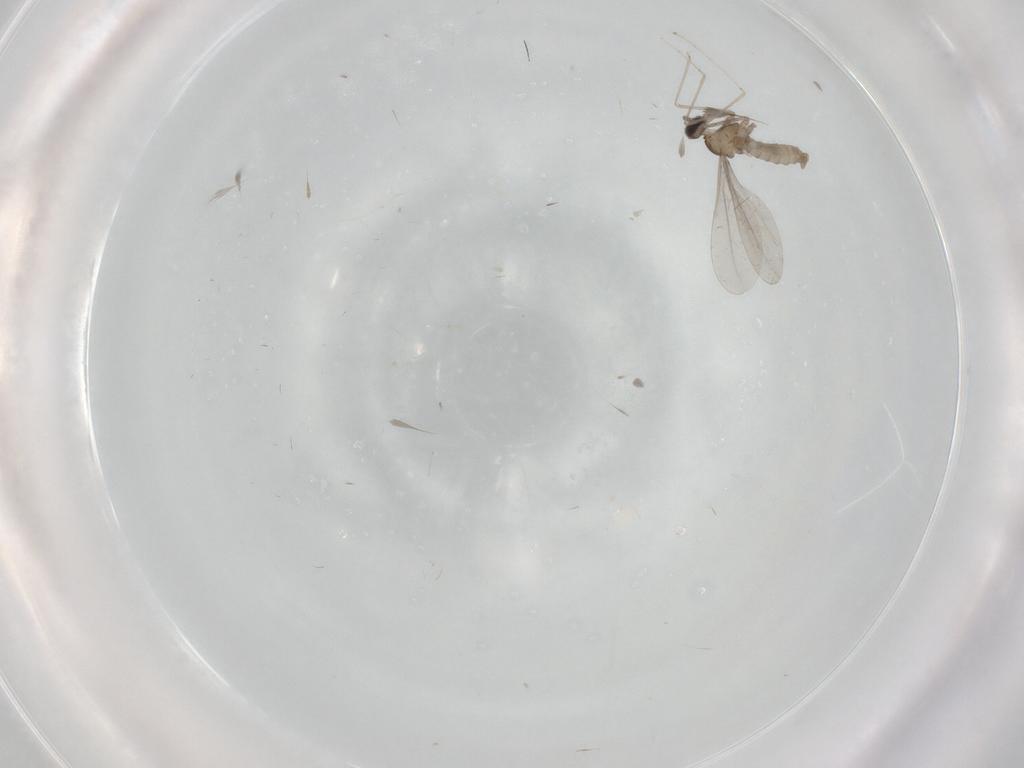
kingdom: Animalia
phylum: Arthropoda
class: Insecta
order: Diptera
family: Cecidomyiidae
